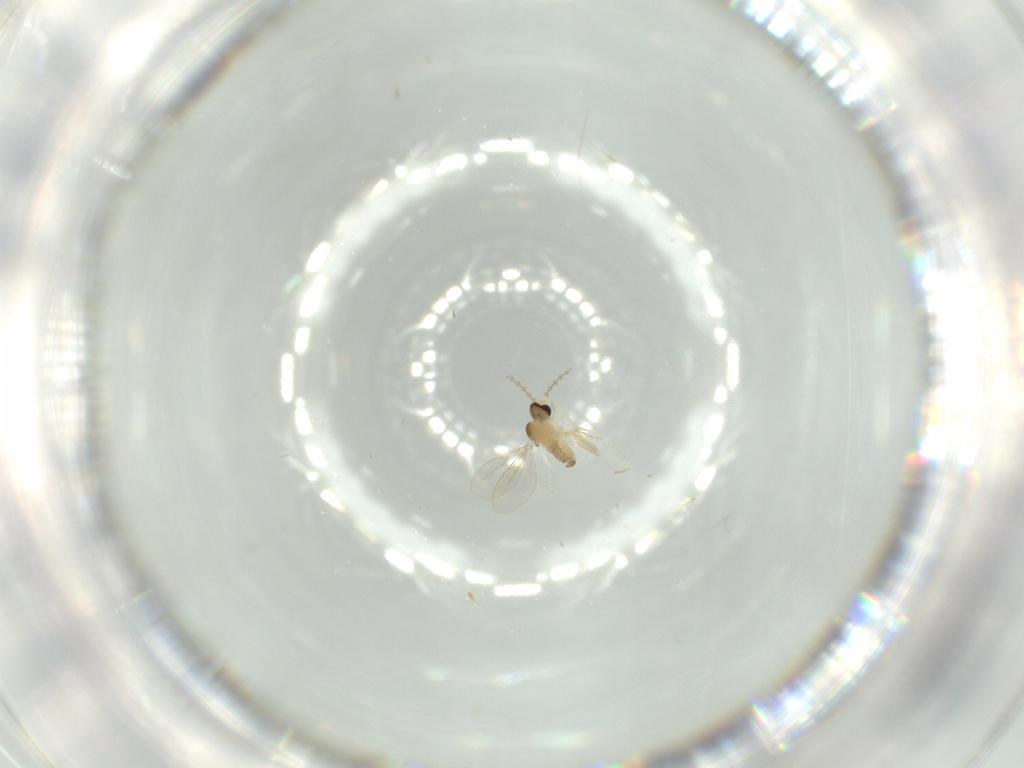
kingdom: Animalia
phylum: Arthropoda
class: Insecta
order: Diptera
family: Cecidomyiidae
